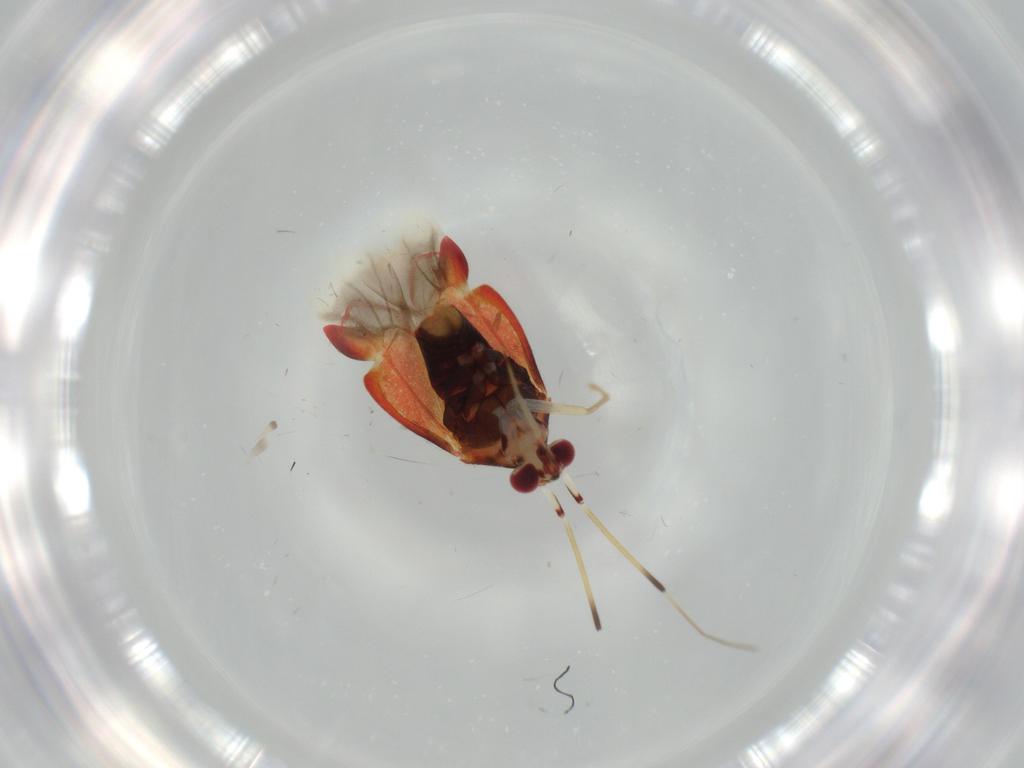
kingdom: Animalia
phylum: Arthropoda
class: Insecta
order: Hemiptera
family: Miridae
